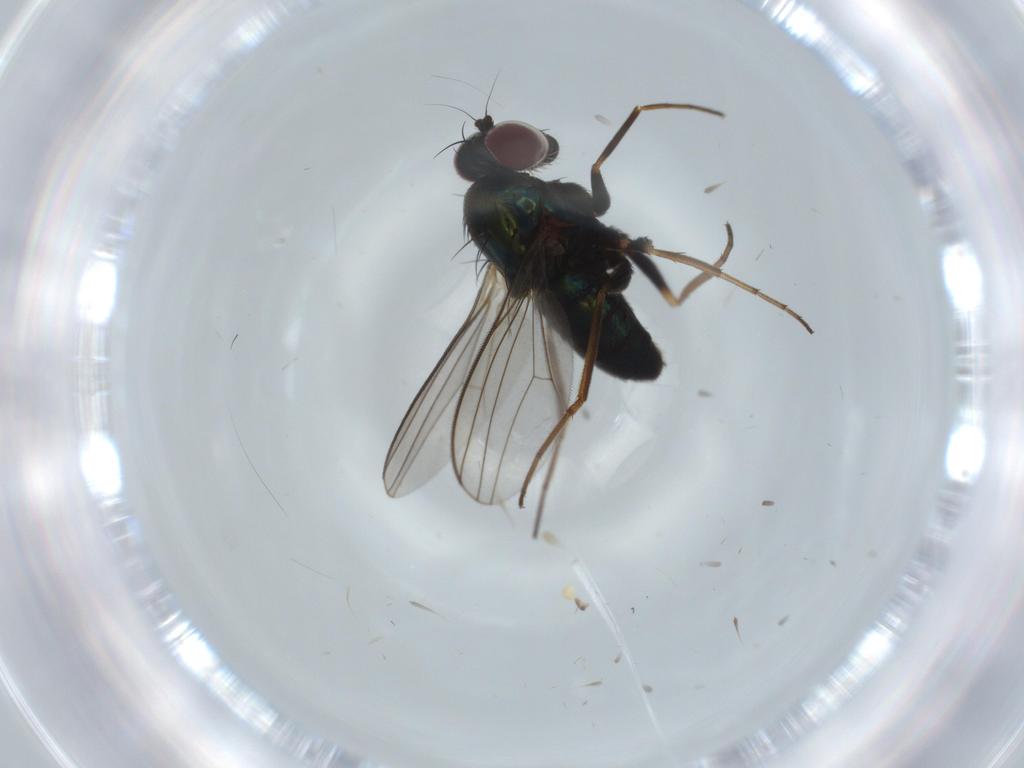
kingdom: Animalia
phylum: Arthropoda
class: Insecta
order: Diptera
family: Dolichopodidae
